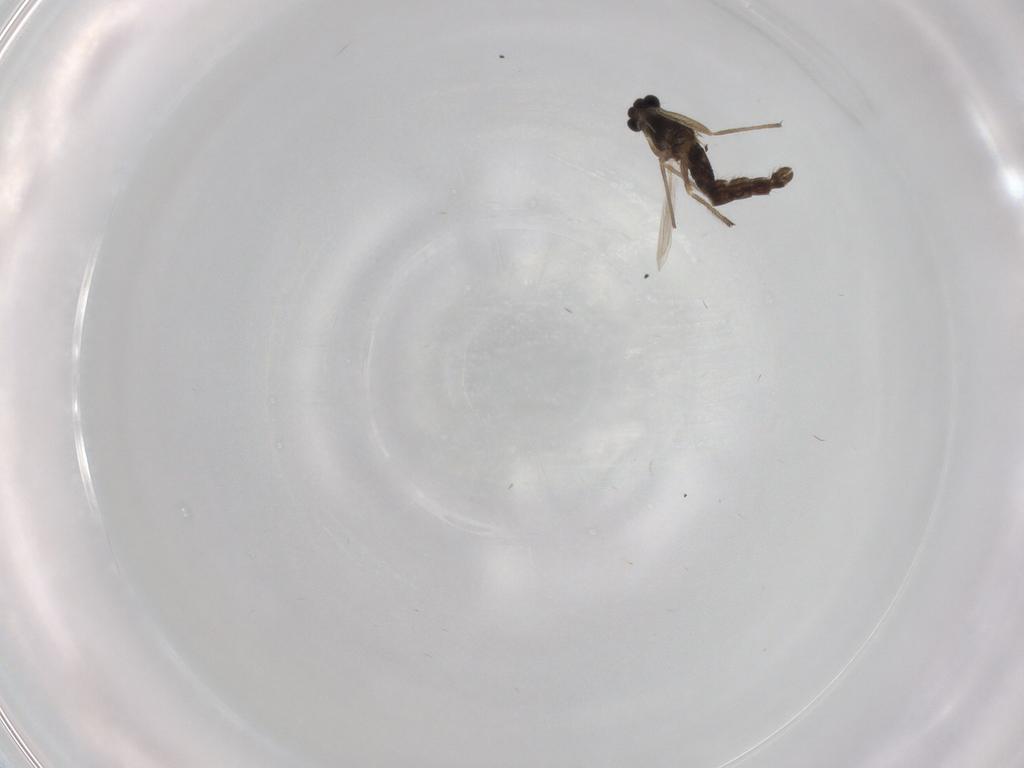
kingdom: Animalia
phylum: Arthropoda
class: Insecta
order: Diptera
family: Chironomidae
